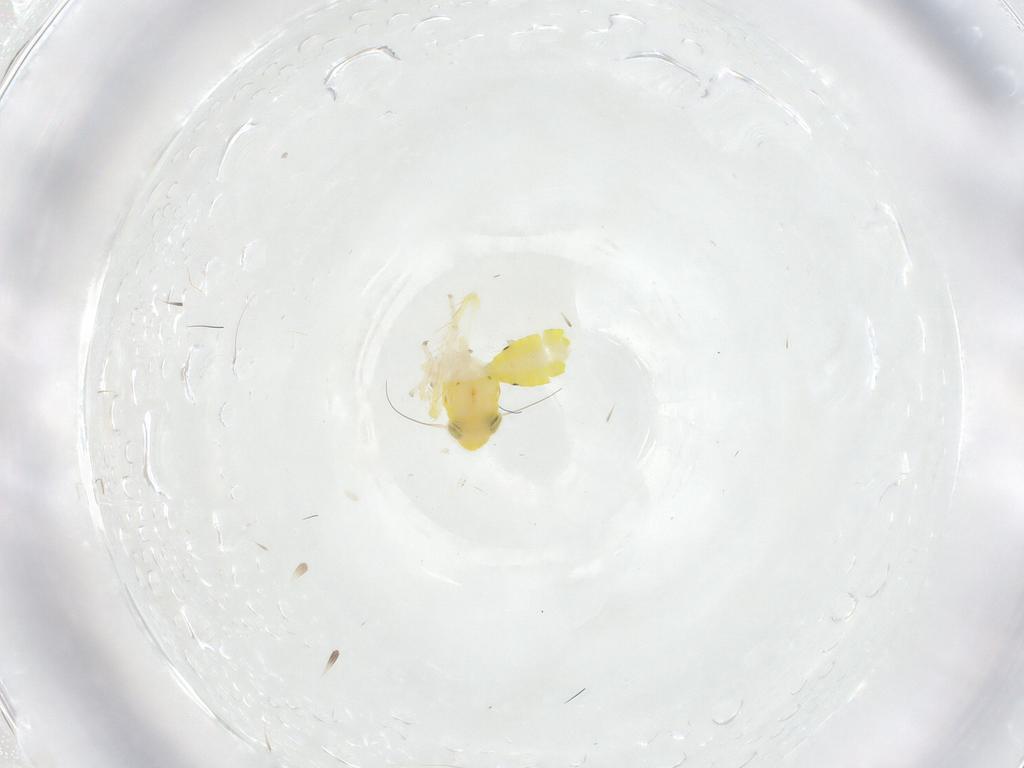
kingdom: Animalia
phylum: Arthropoda
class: Insecta
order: Hemiptera
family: Cicadellidae
